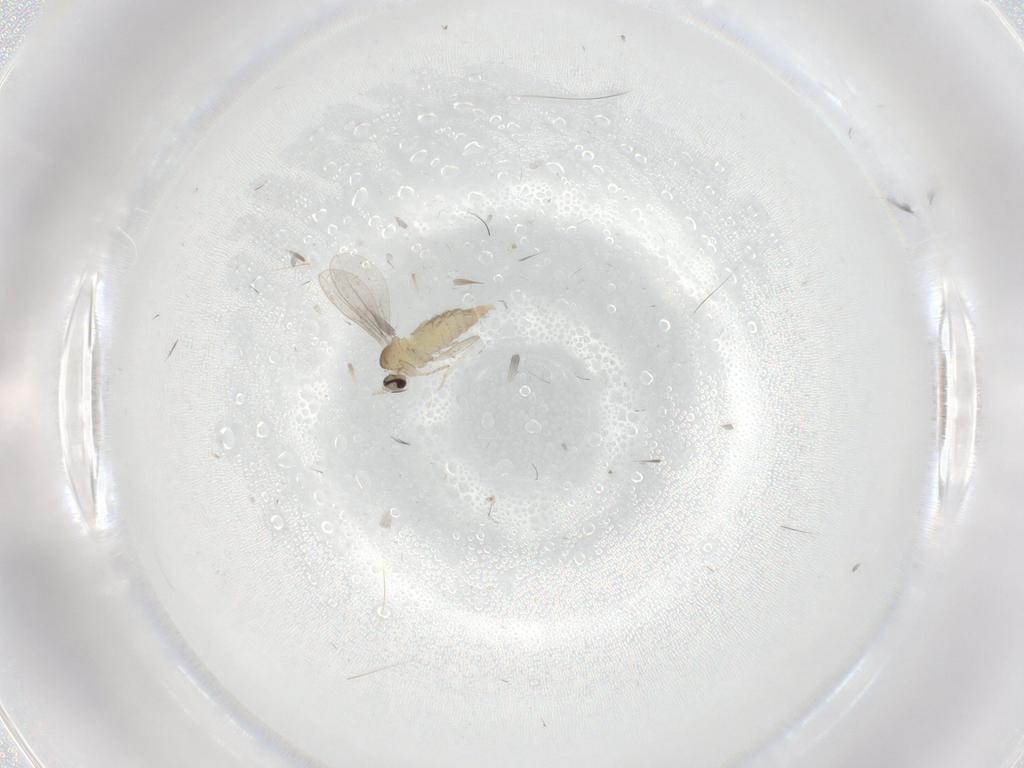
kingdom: Animalia
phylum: Arthropoda
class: Insecta
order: Diptera
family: Cecidomyiidae
